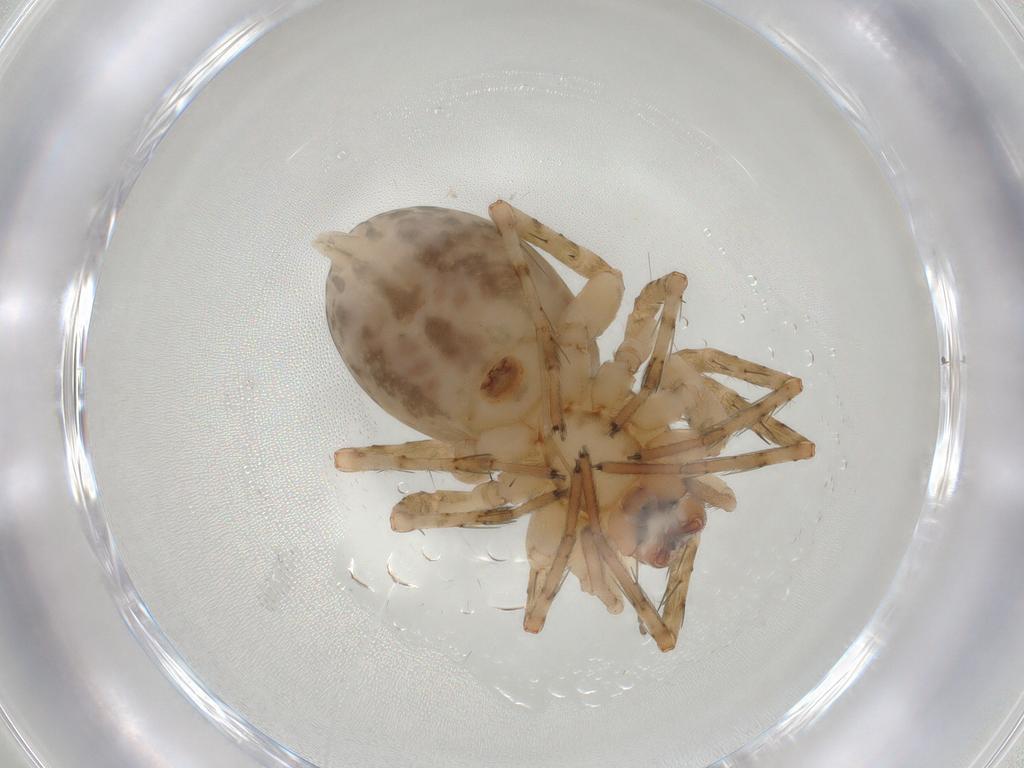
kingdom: Animalia
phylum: Arthropoda
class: Arachnida
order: Araneae
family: Anyphaenidae
